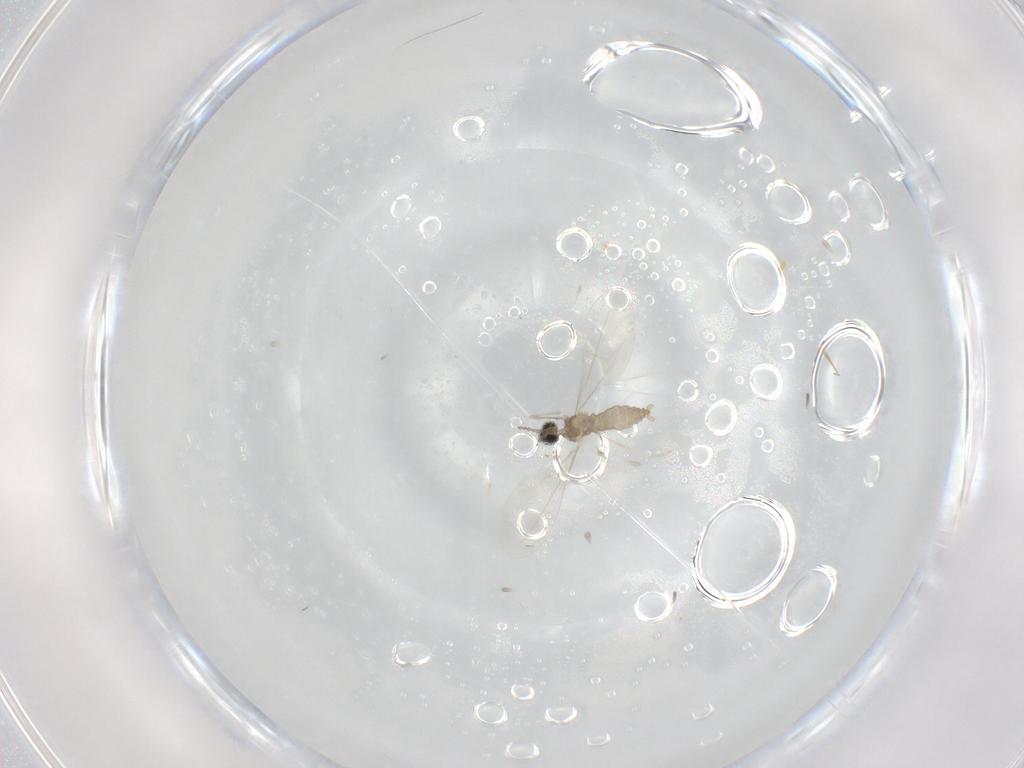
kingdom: Animalia
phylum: Arthropoda
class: Insecta
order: Diptera
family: Cecidomyiidae
